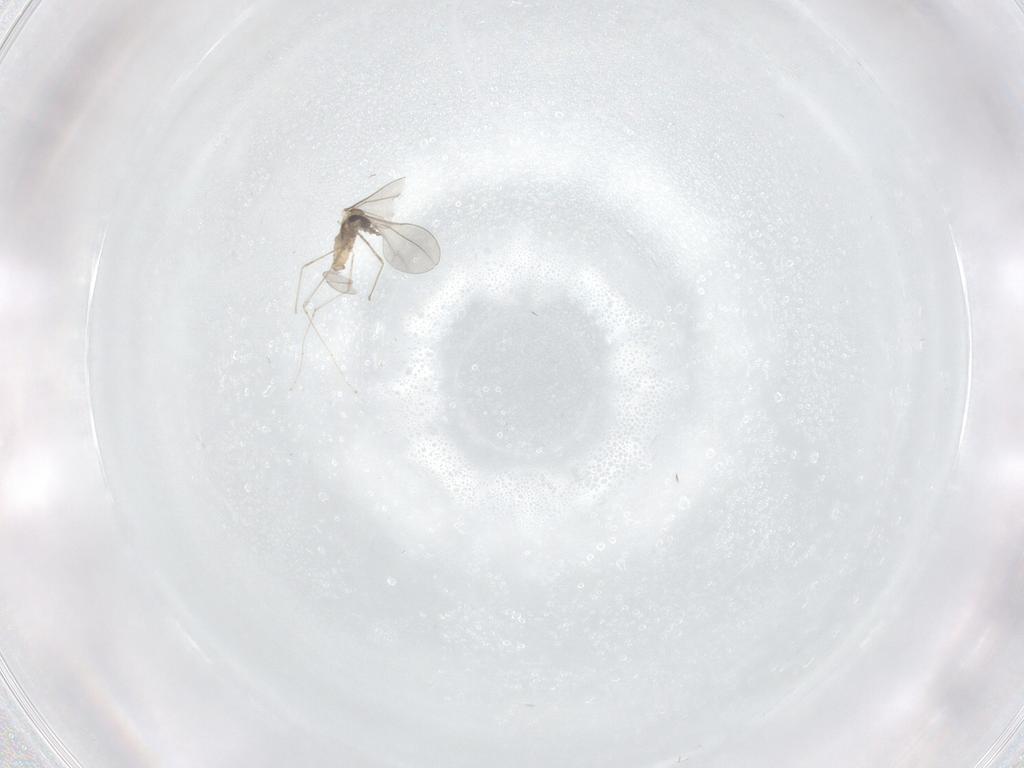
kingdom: Animalia
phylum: Arthropoda
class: Insecta
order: Diptera
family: Cecidomyiidae
